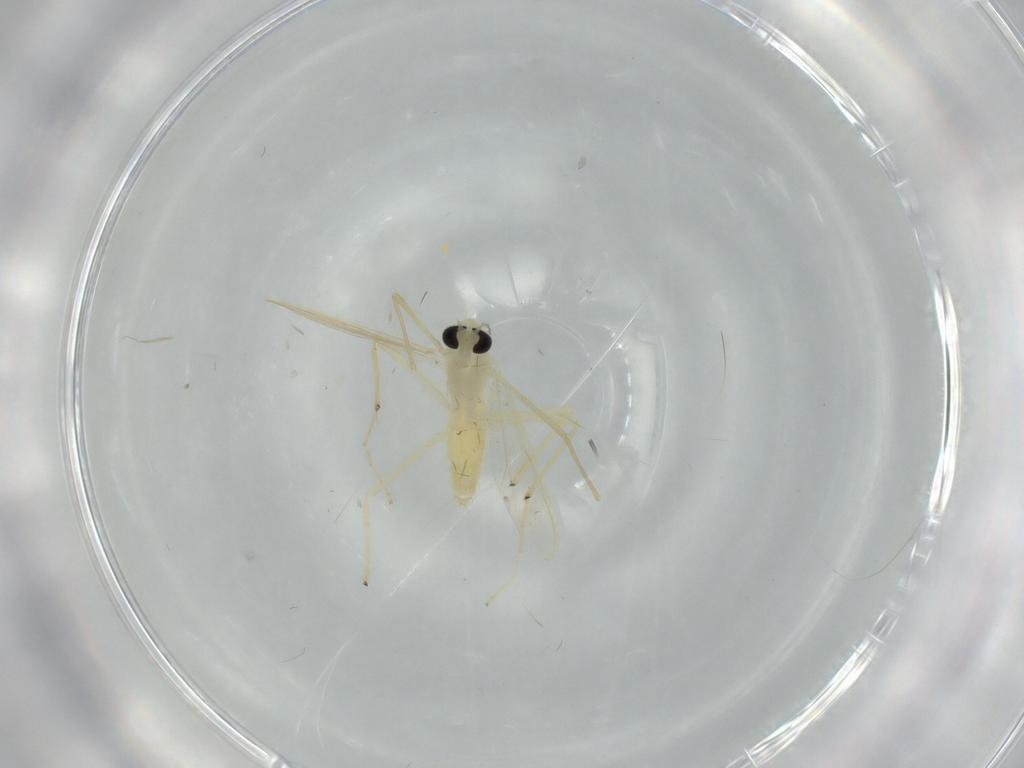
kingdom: Animalia
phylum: Arthropoda
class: Insecta
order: Diptera
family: Chironomidae
